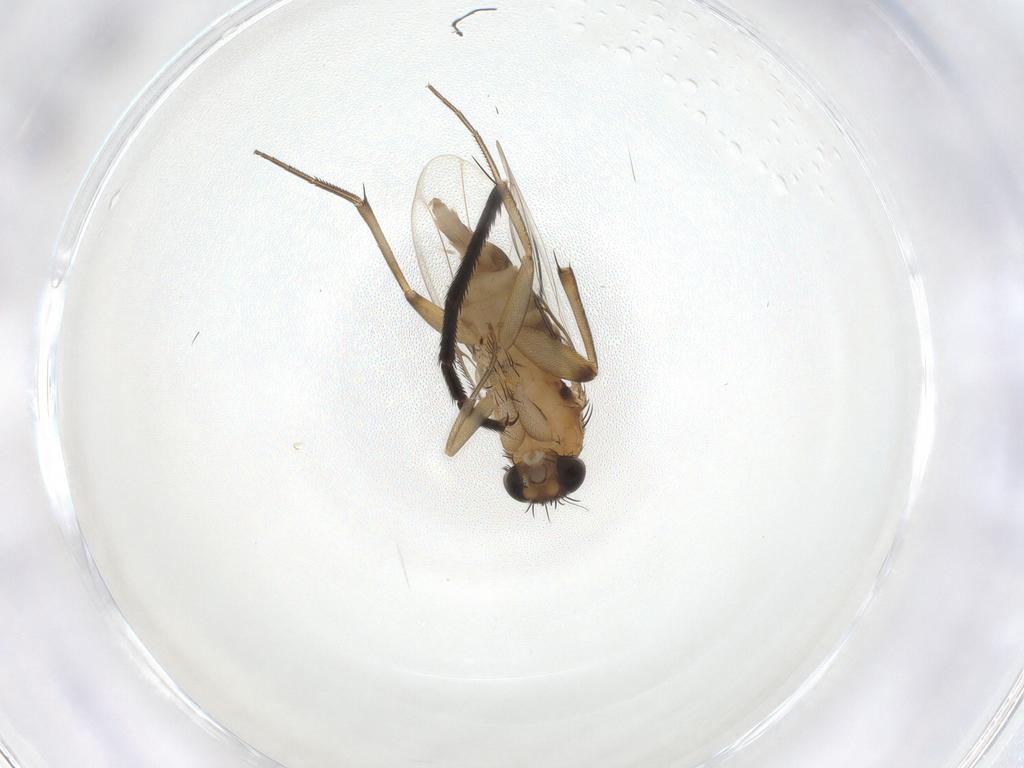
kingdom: Animalia
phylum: Arthropoda
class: Insecta
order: Diptera
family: Phoridae
